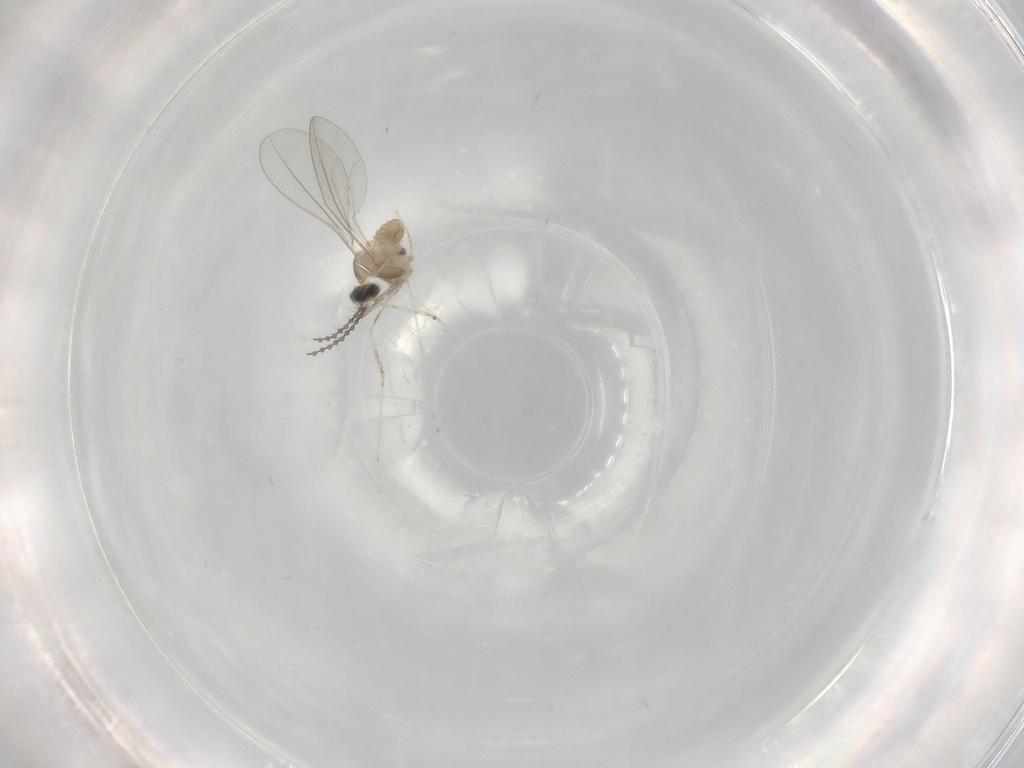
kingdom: Animalia
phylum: Arthropoda
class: Insecta
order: Diptera
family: Cecidomyiidae
